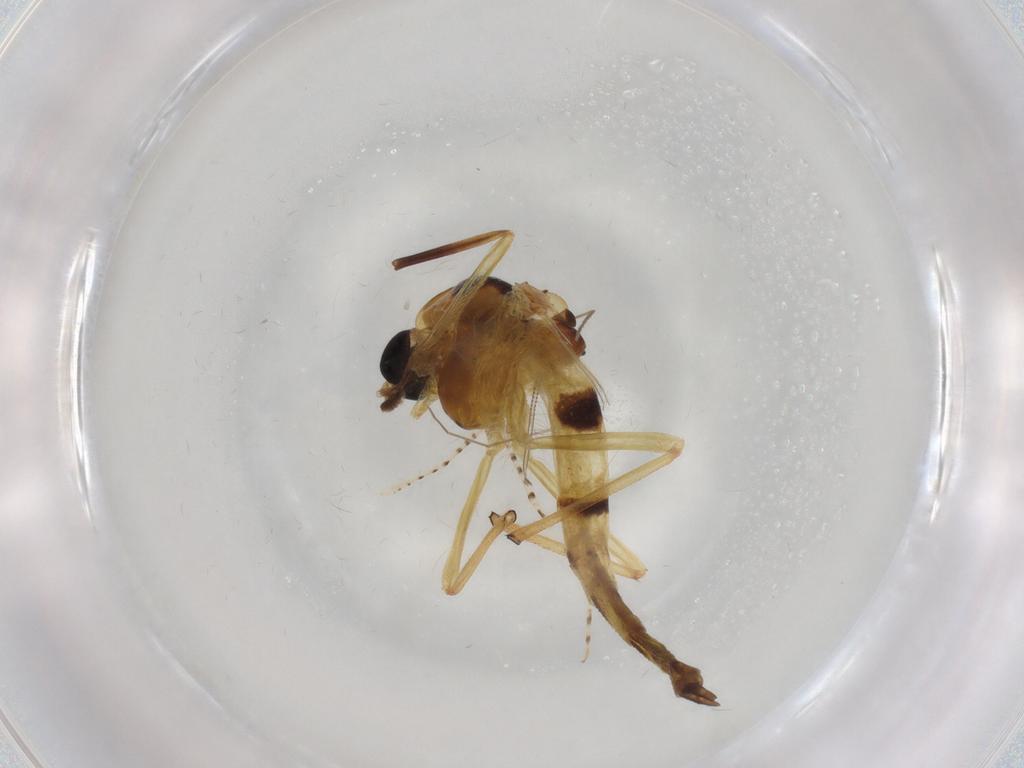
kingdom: Animalia
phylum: Arthropoda
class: Insecta
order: Diptera
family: Chironomidae
